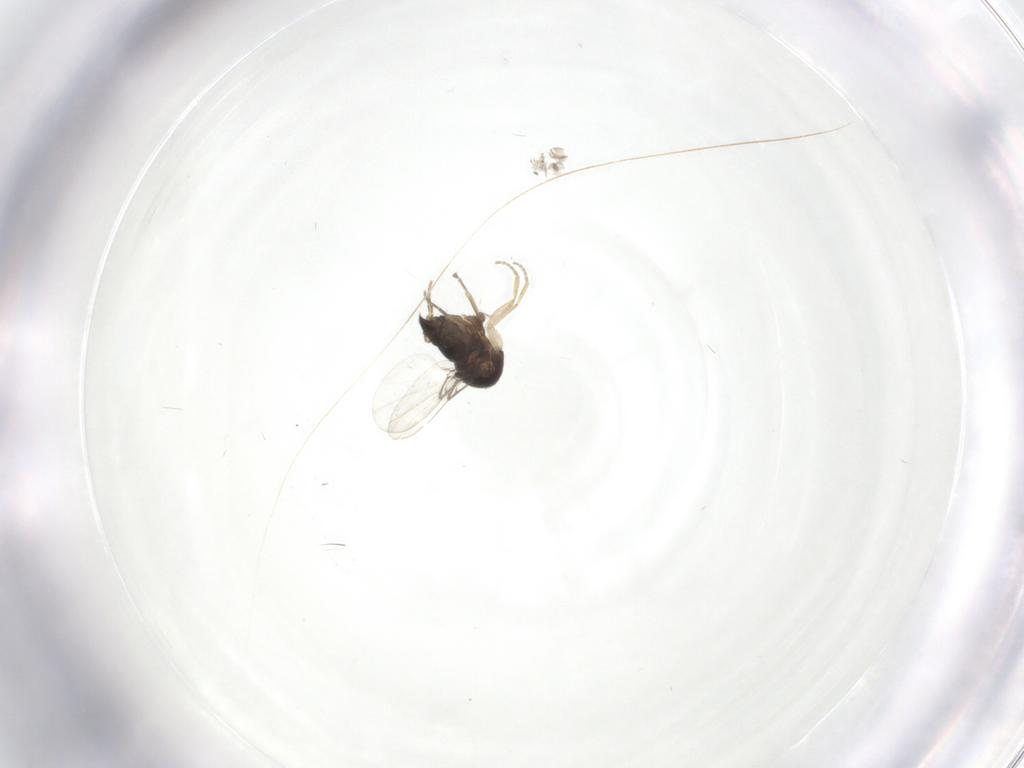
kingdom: Animalia
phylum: Arthropoda
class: Insecta
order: Diptera
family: Phoridae
